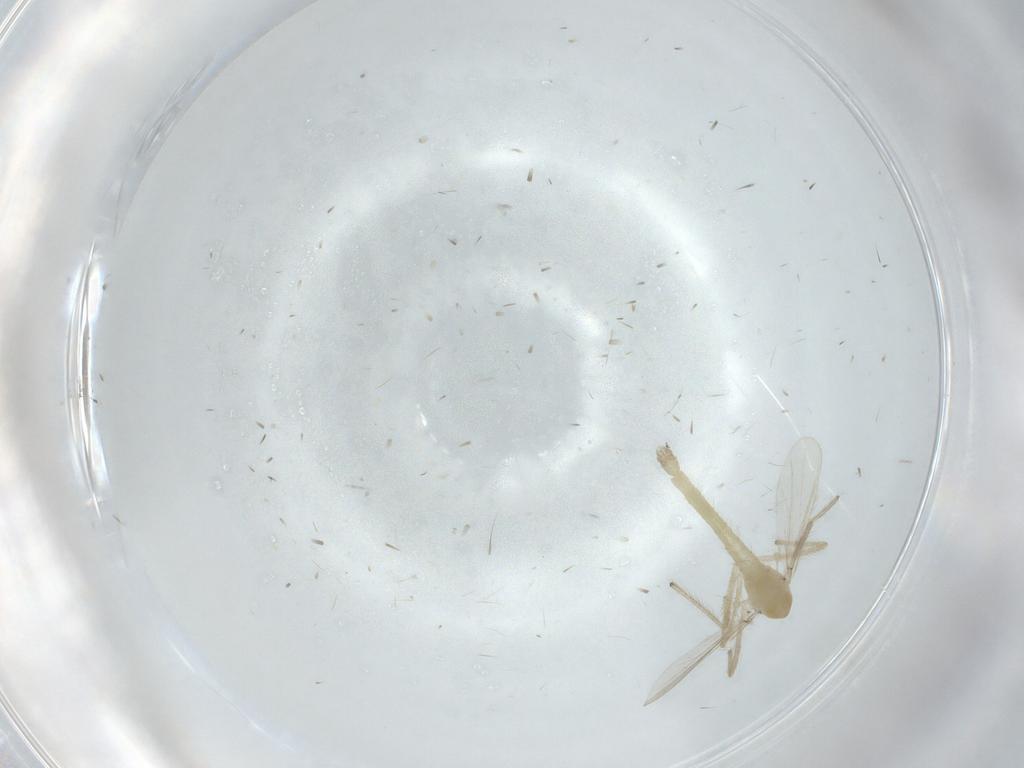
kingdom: Animalia
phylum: Arthropoda
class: Insecta
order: Diptera
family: Chironomidae
